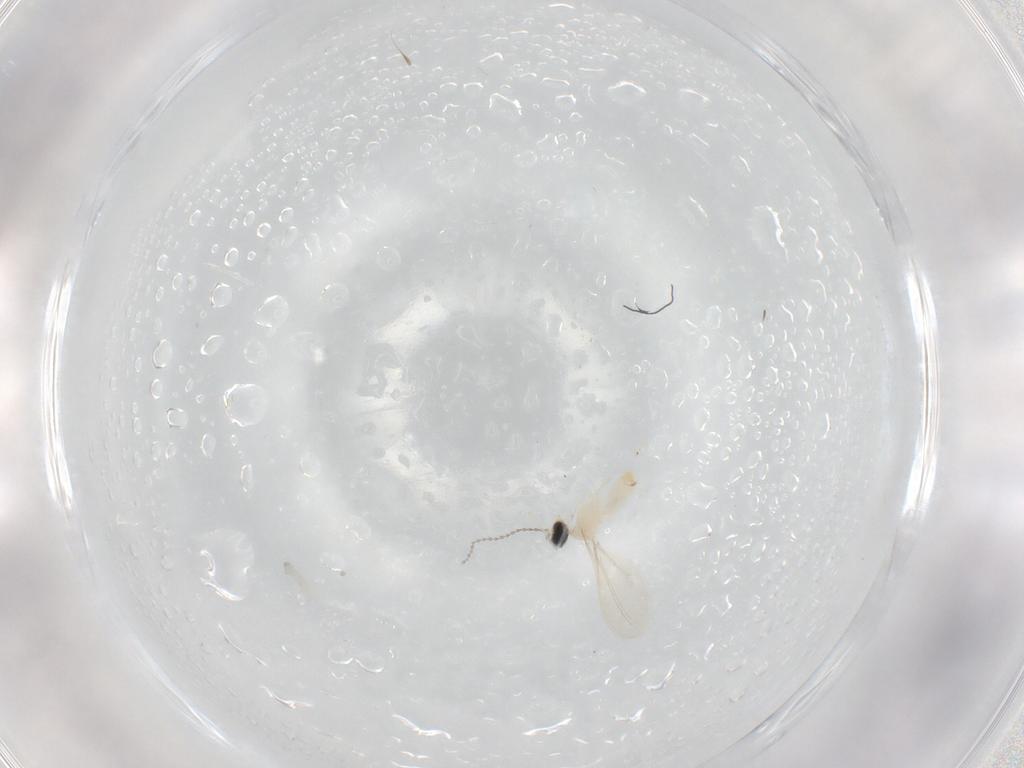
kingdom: Animalia
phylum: Arthropoda
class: Insecta
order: Diptera
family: Cecidomyiidae
